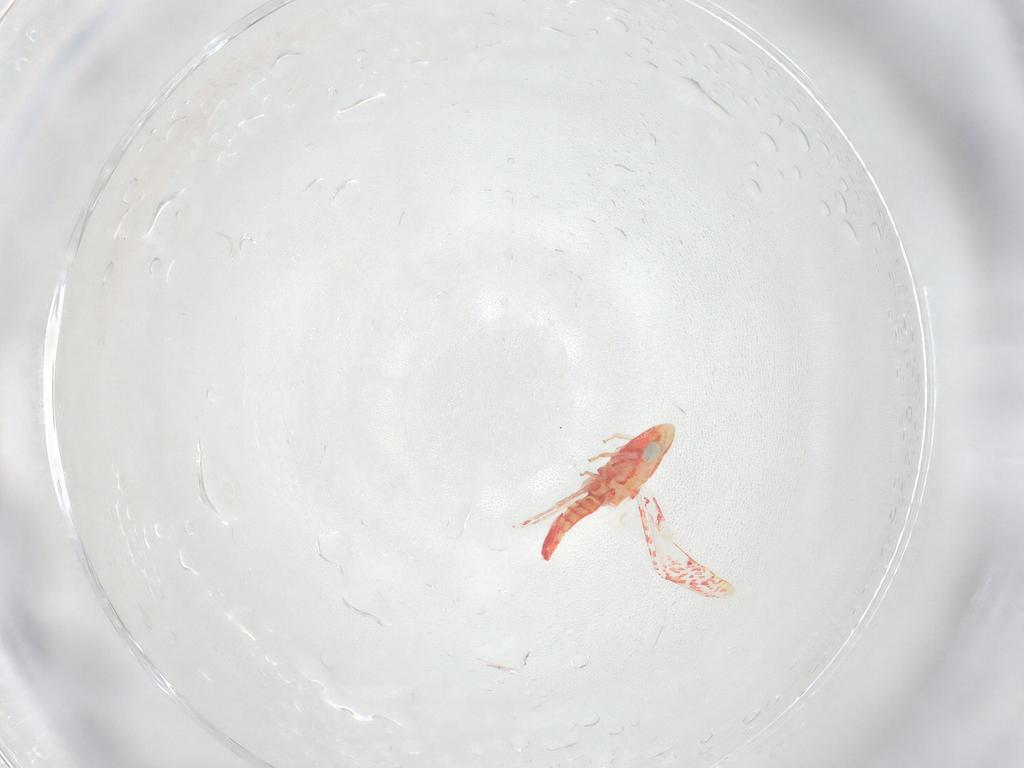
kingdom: Animalia
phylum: Arthropoda
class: Insecta
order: Hemiptera
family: Cicadellidae
